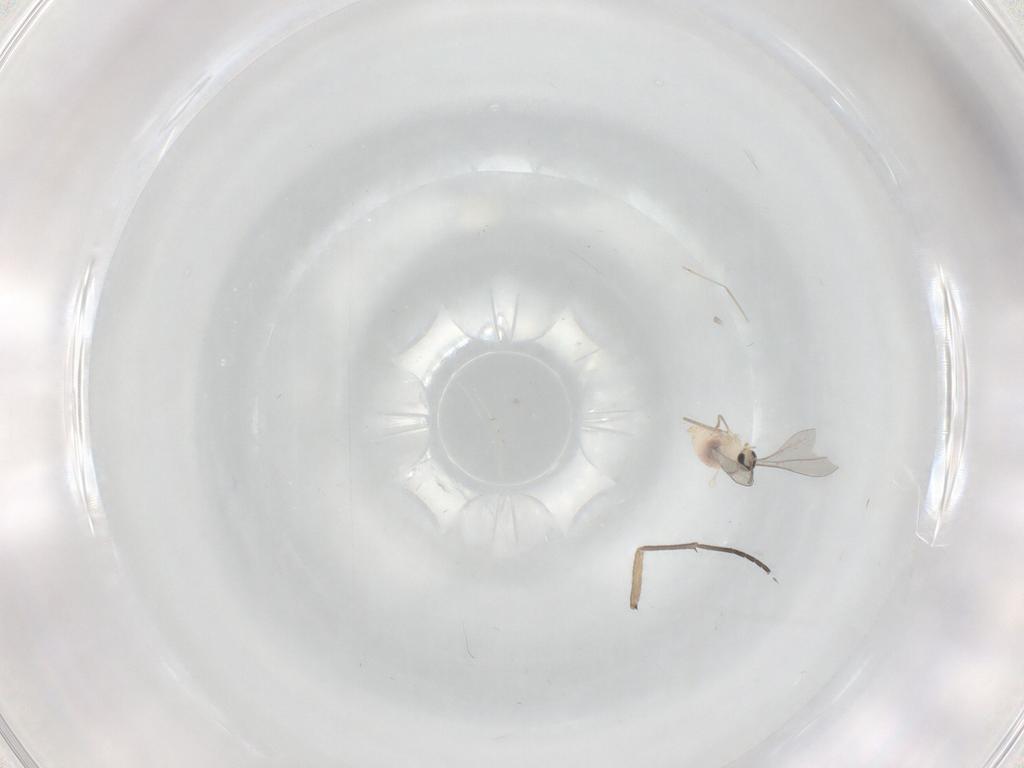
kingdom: Animalia
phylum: Arthropoda
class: Insecta
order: Diptera
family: Cecidomyiidae
